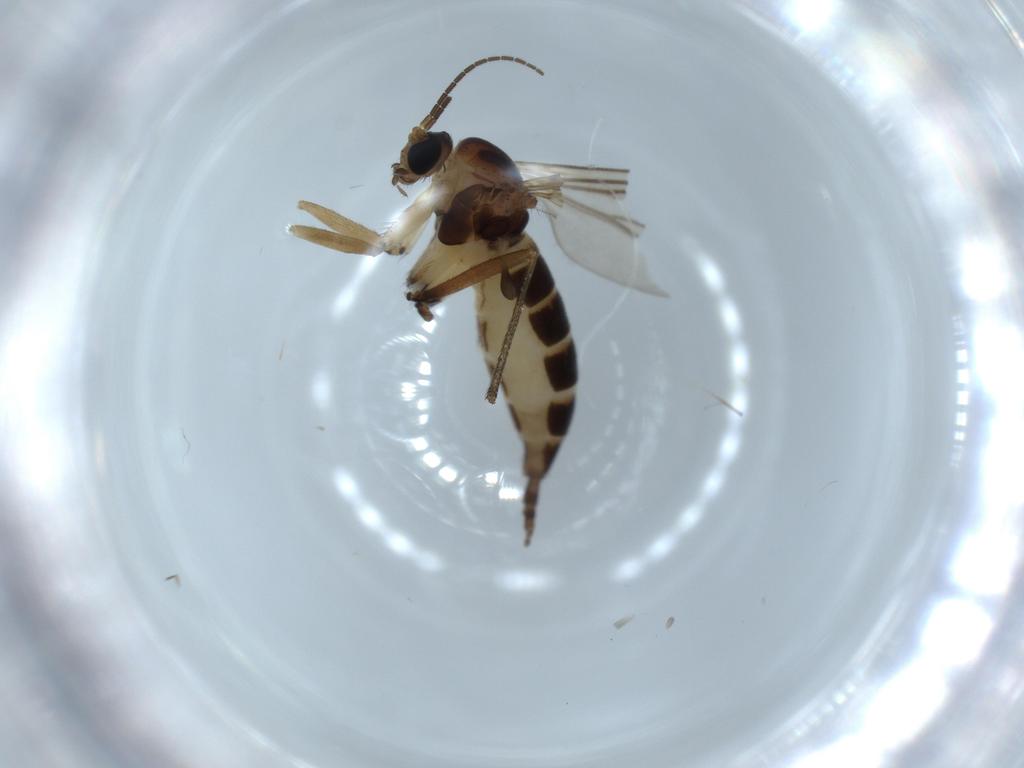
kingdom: Animalia
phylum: Arthropoda
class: Insecta
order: Diptera
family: Sciaridae
